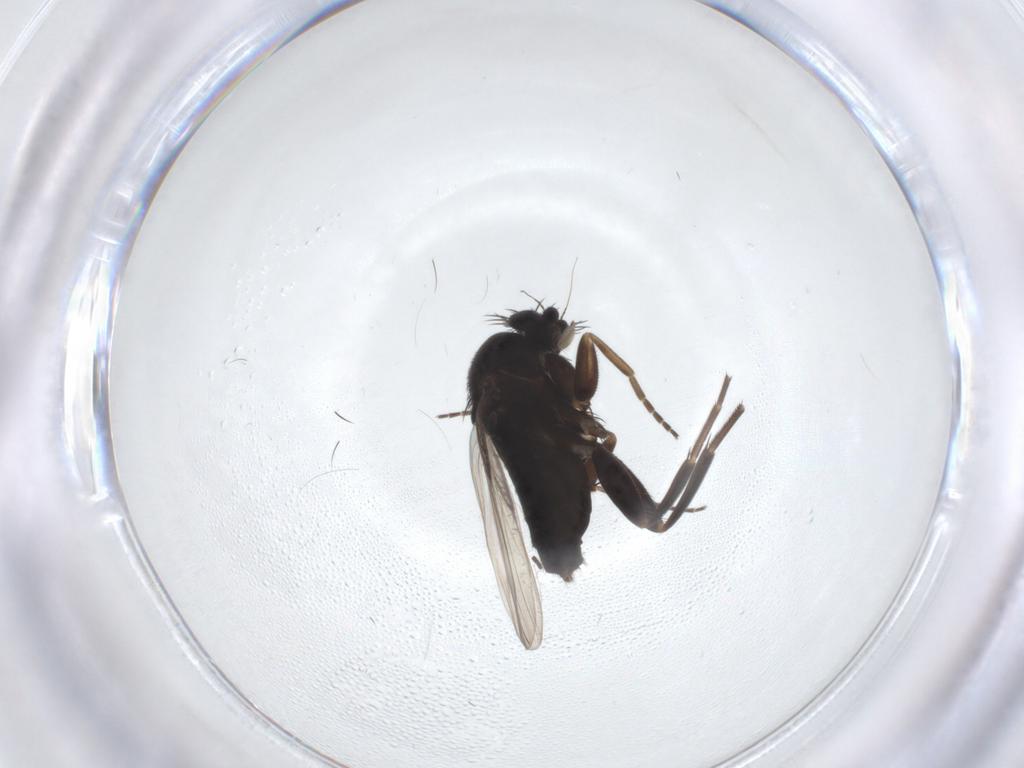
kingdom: Animalia
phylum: Arthropoda
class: Insecta
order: Diptera
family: Phoridae
